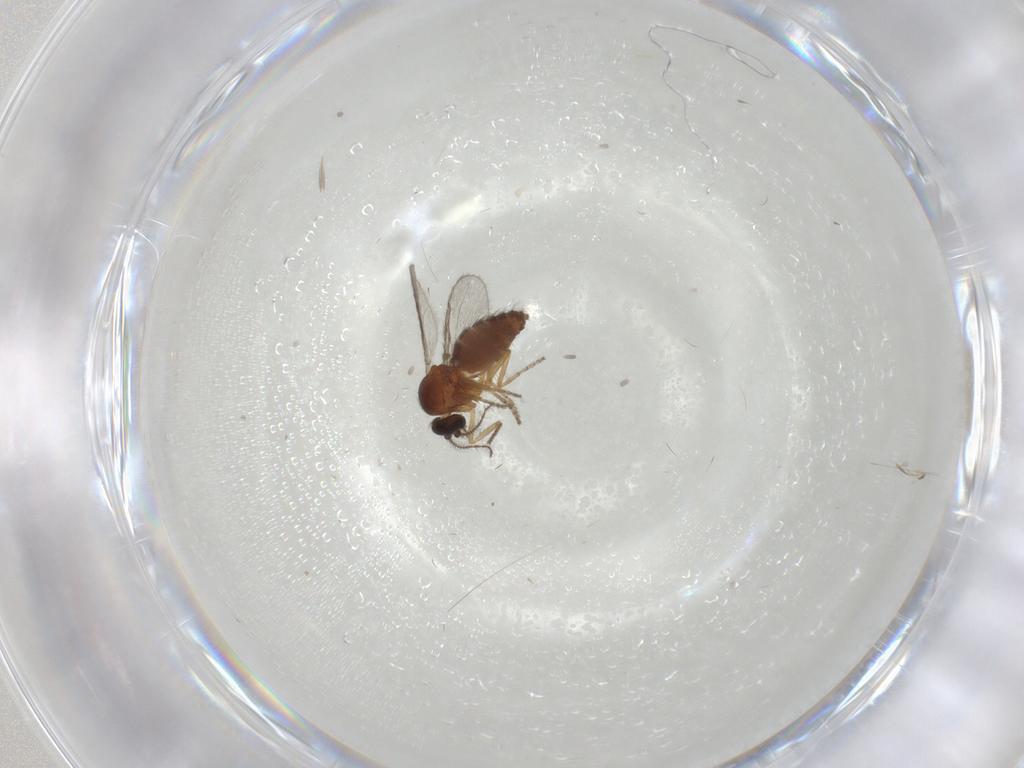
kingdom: Animalia
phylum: Arthropoda
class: Insecta
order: Diptera
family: Ceratopogonidae
